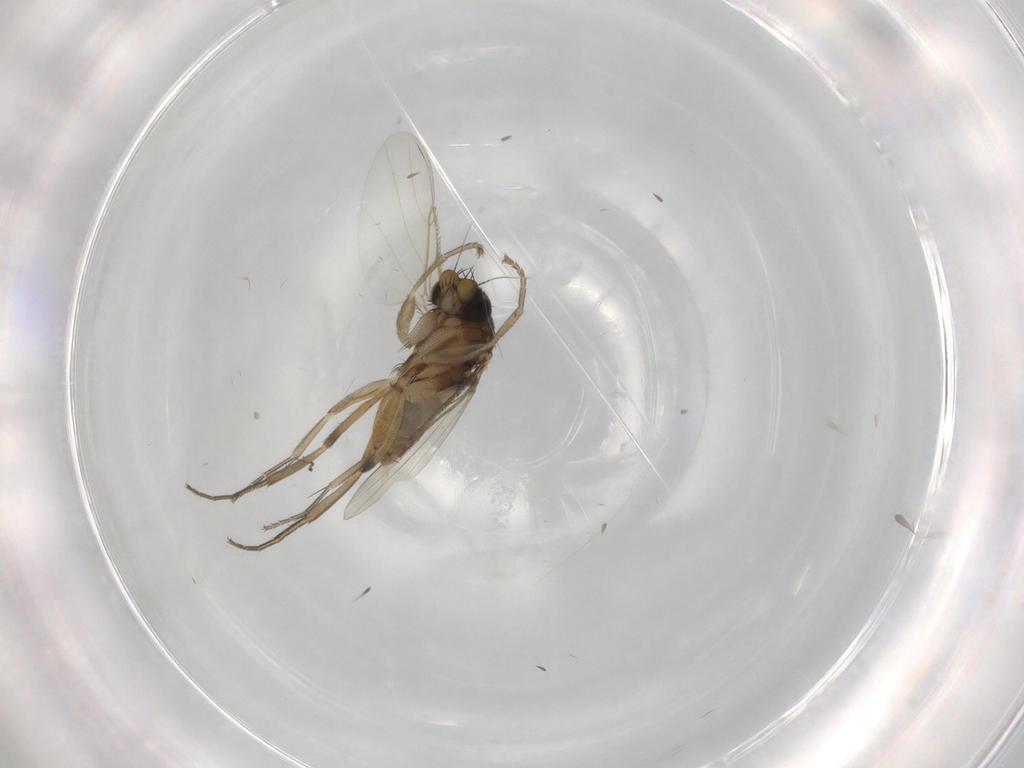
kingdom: Animalia
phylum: Arthropoda
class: Insecta
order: Diptera
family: Phoridae
